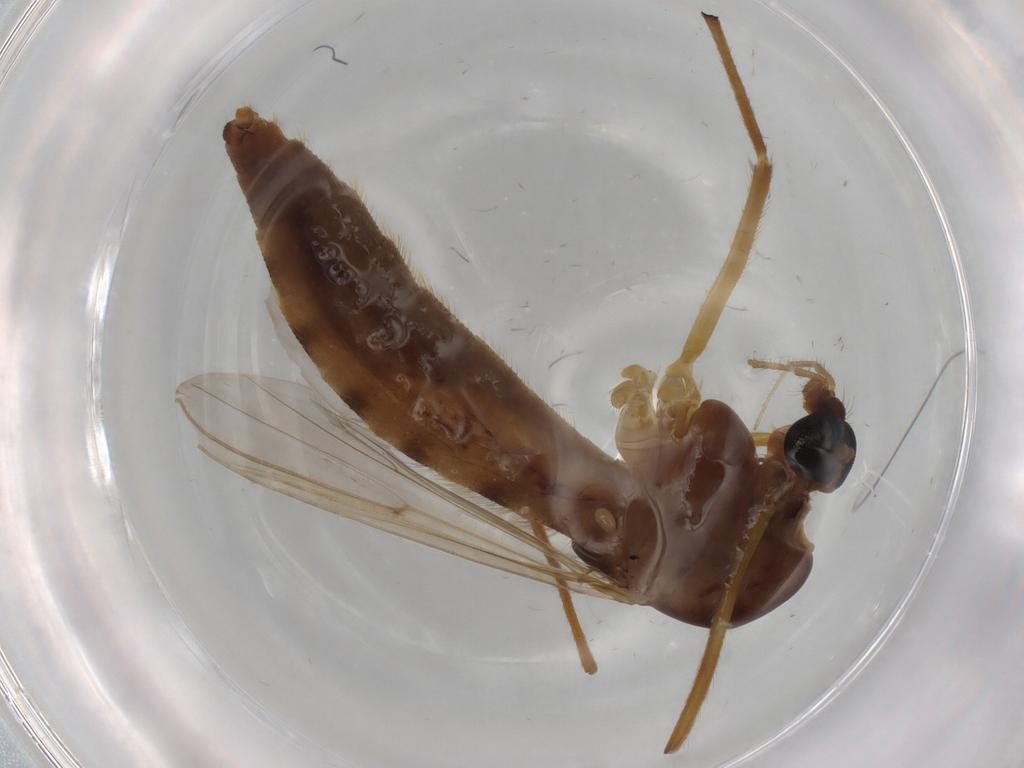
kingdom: Animalia
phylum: Arthropoda
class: Insecta
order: Diptera
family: Chironomidae
